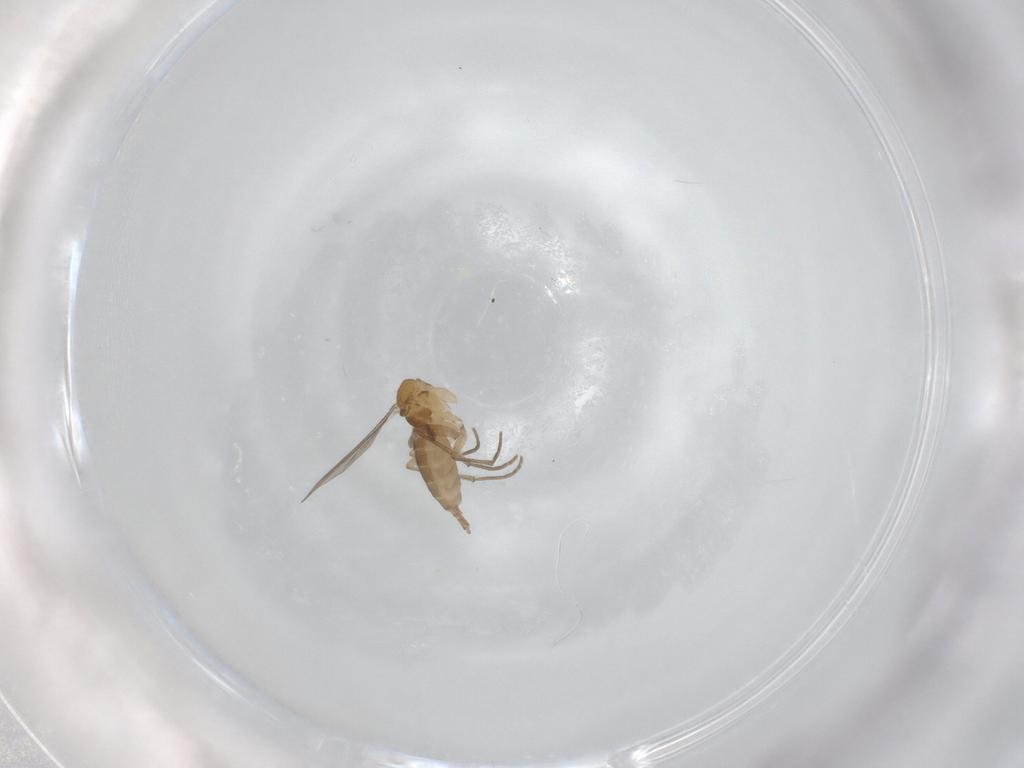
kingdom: Animalia
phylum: Arthropoda
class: Insecta
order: Diptera
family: Sciaridae
